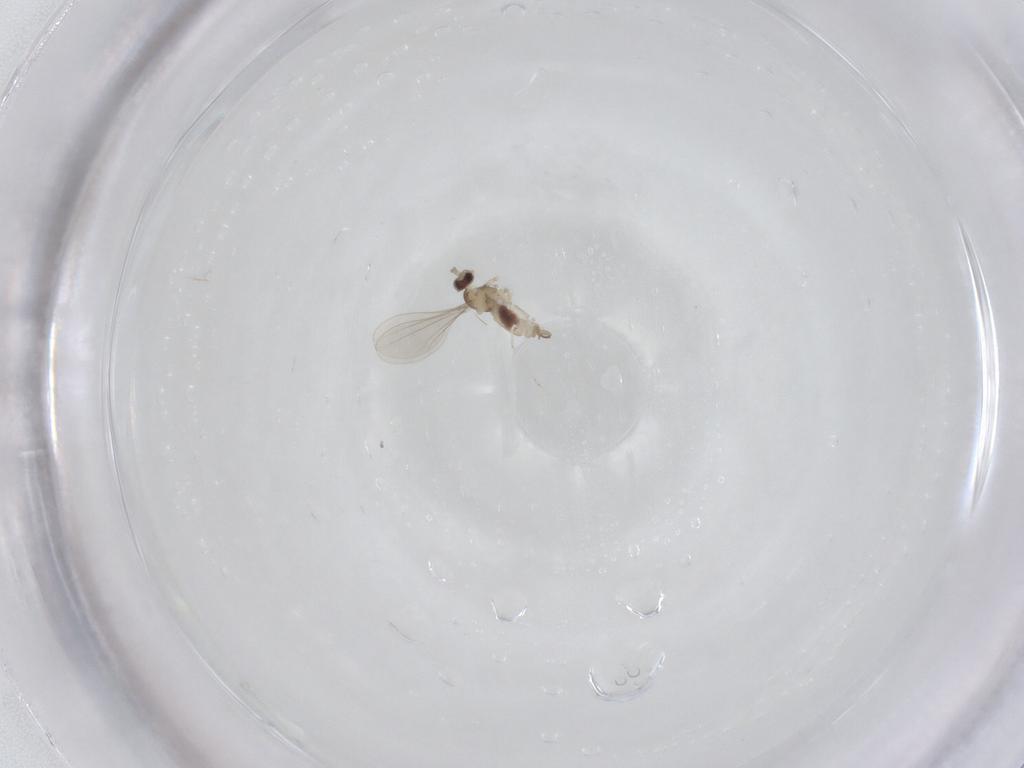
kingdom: Animalia
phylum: Arthropoda
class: Insecta
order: Diptera
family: Cecidomyiidae
